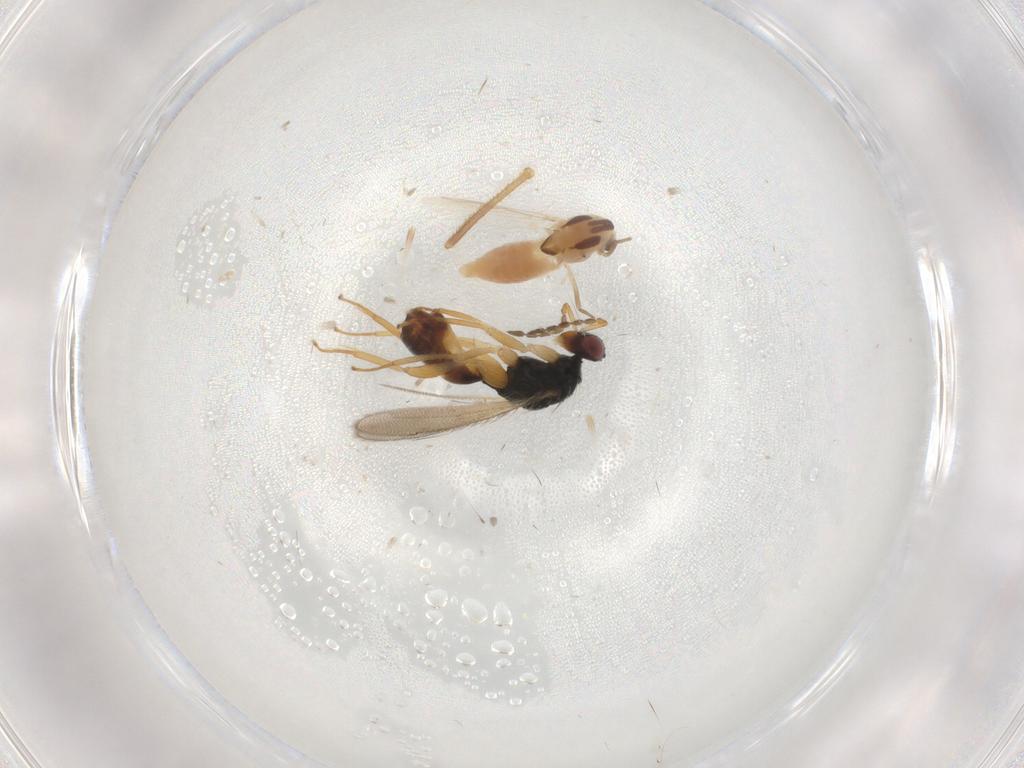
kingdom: Animalia
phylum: Arthropoda
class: Insecta
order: Diptera
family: Chironomidae
